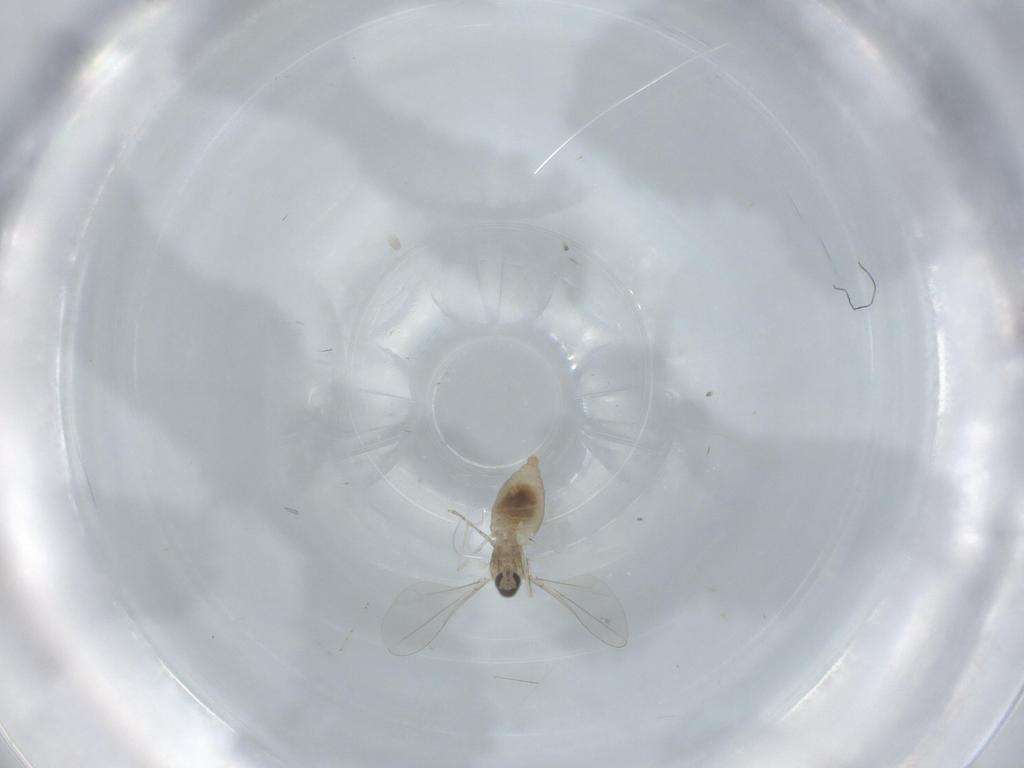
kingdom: Animalia
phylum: Arthropoda
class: Insecta
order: Diptera
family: Cecidomyiidae
